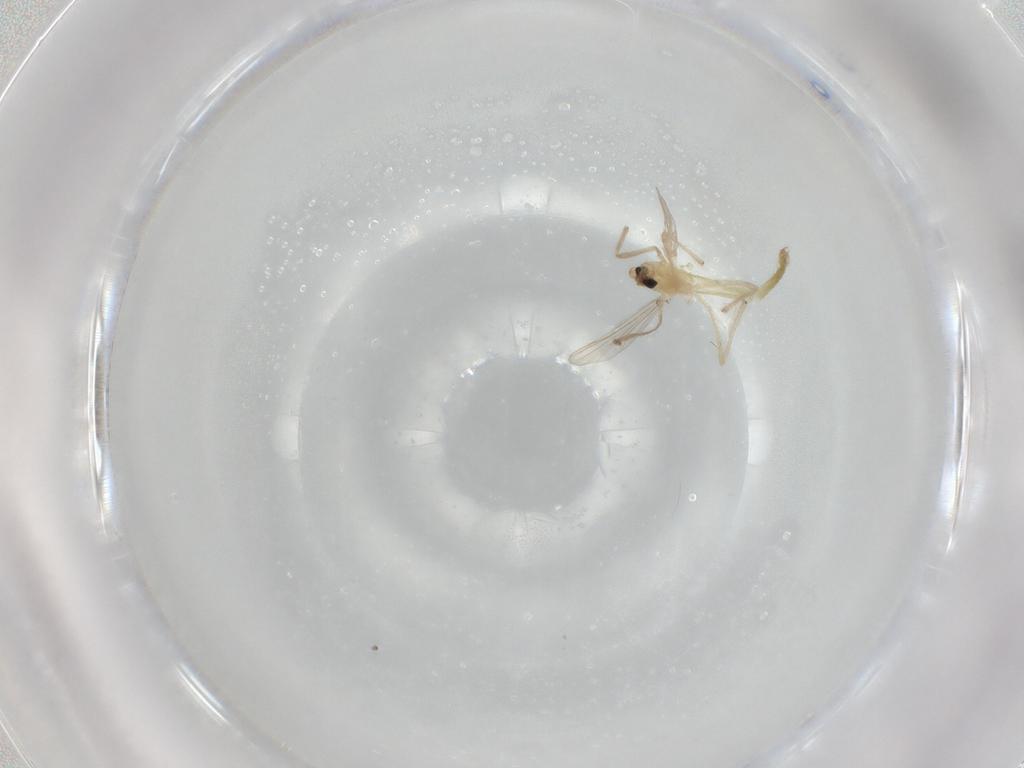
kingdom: Animalia
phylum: Arthropoda
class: Insecta
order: Diptera
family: Chironomidae
